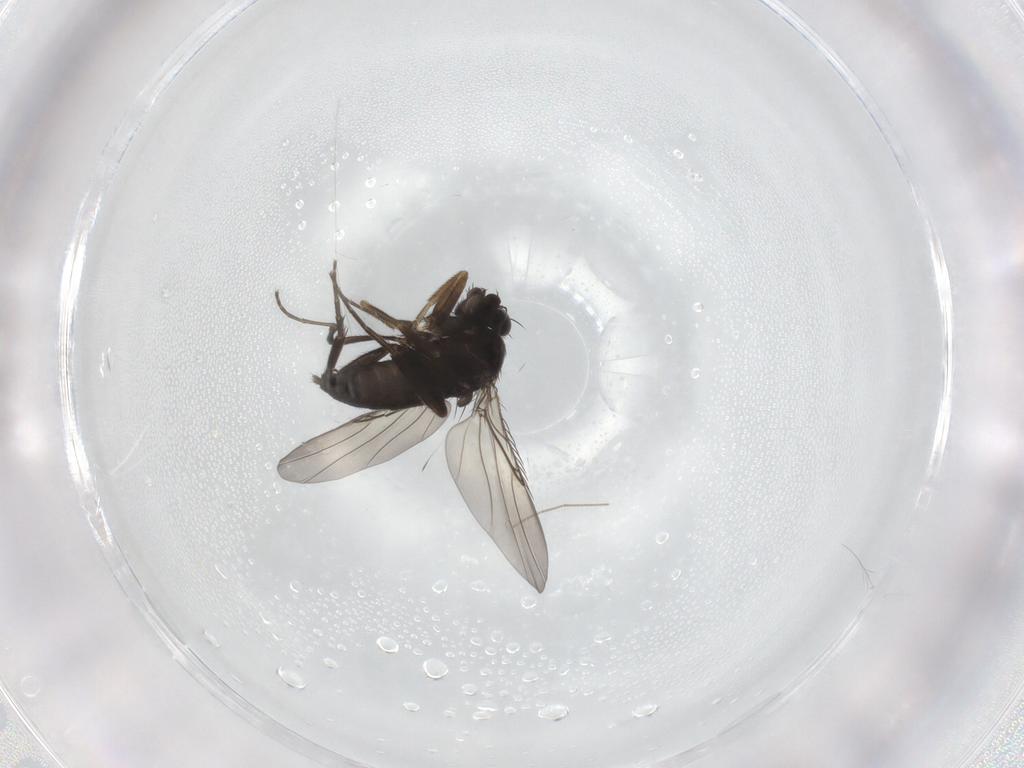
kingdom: Animalia
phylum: Arthropoda
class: Insecta
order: Diptera
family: Phoridae
